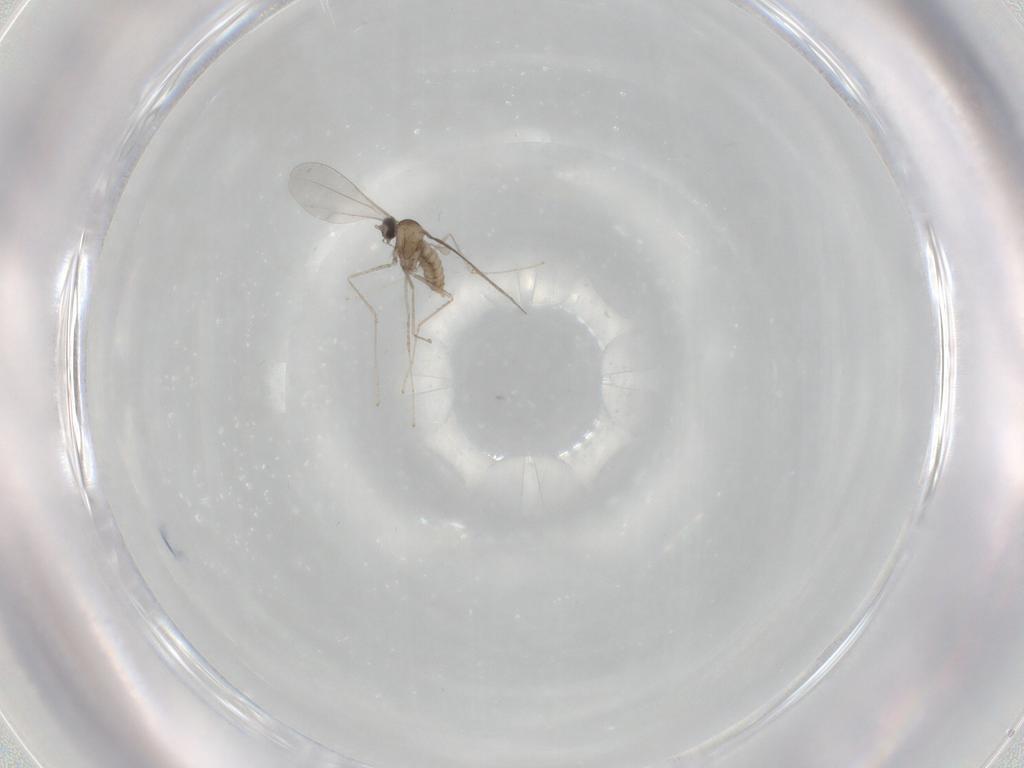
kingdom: Animalia
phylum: Arthropoda
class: Insecta
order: Diptera
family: Cecidomyiidae
